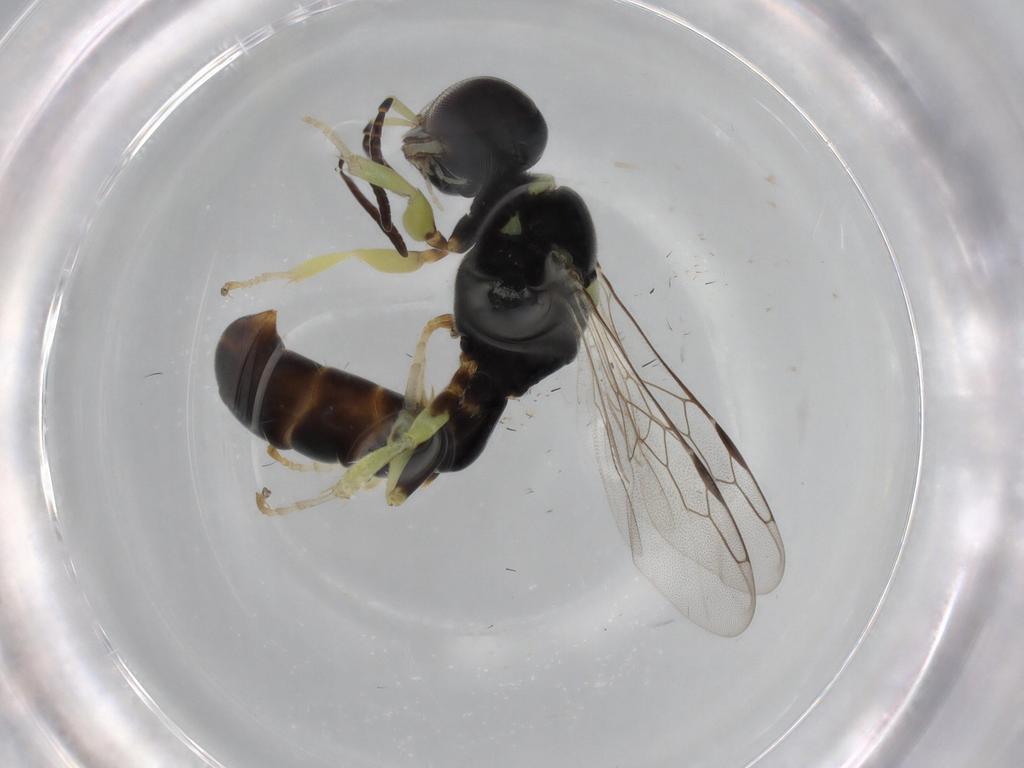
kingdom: Animalia
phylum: Arthropoda
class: Insecta
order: Hymenoptera
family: Crabronidae
